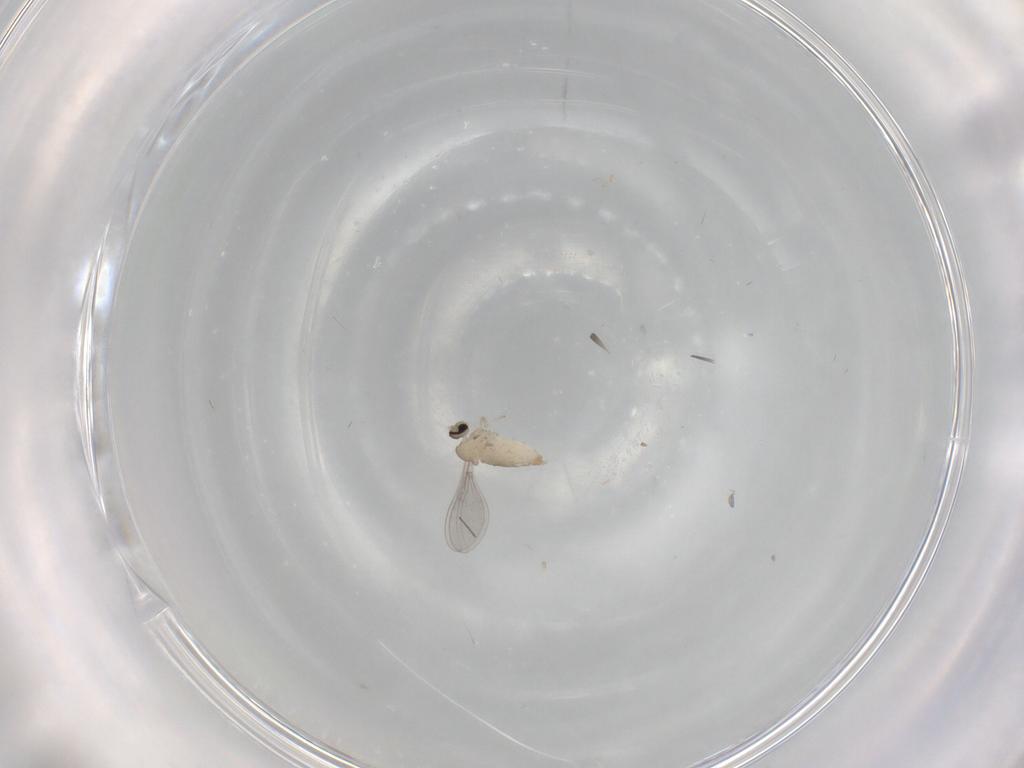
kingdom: Animalia
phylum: Arthropoda
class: Insecta
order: Diptera
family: Cecidomyiidae
